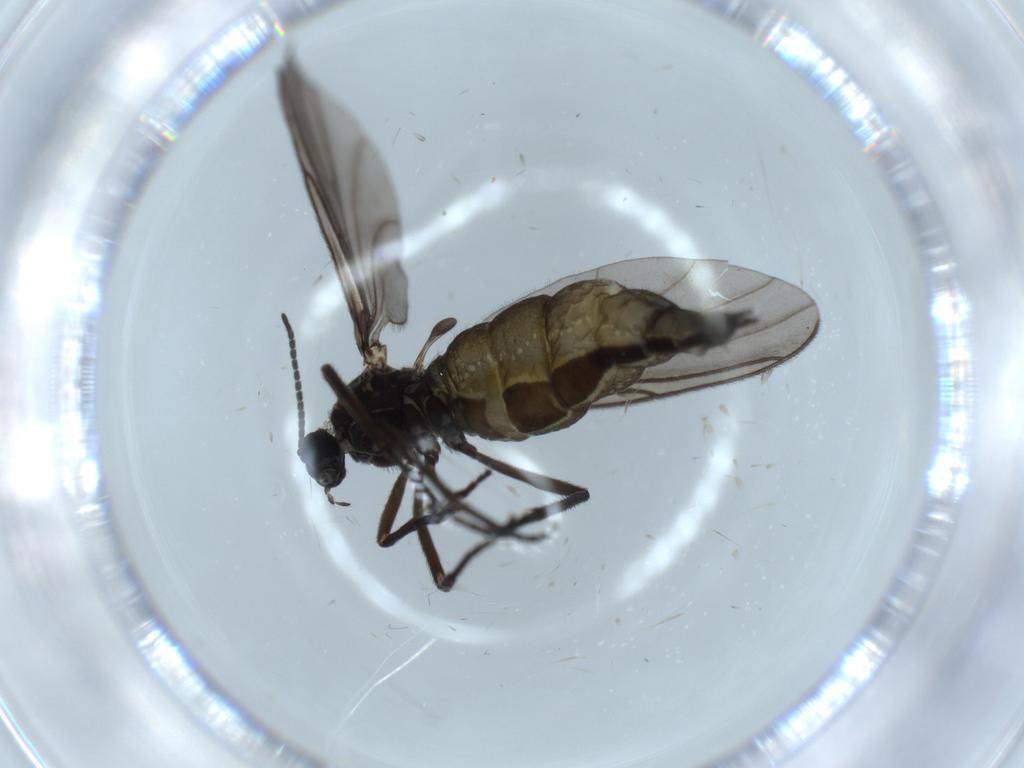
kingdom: Animalia
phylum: Arthropoda
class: Insecta
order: Diptera
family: Sciaridae
